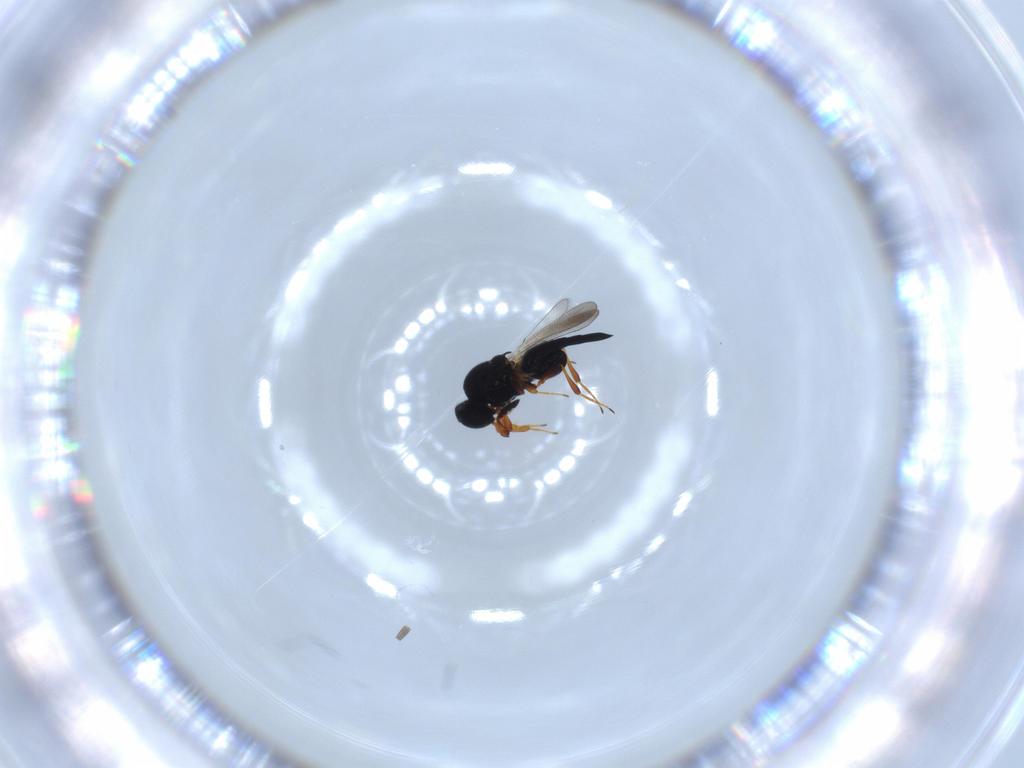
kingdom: Animalia
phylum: Arthropoda
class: Insecta
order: Hymenoptera
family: Platygastridae
